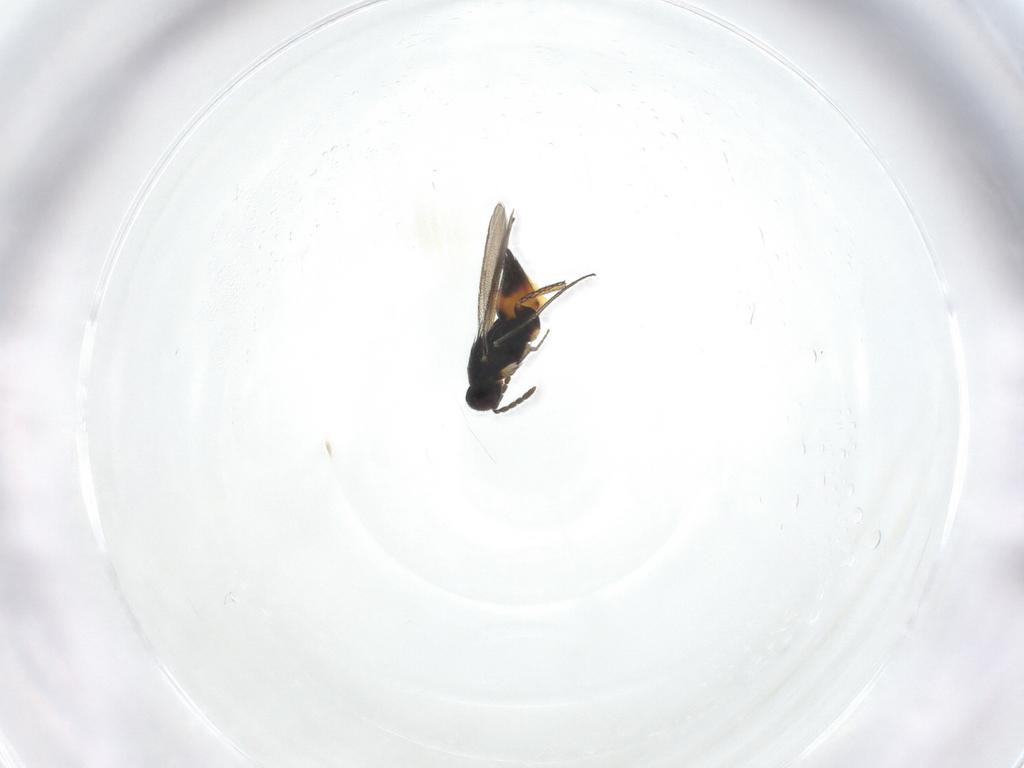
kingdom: Animalia
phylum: Arthropoda
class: Insecta
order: Hymenoptera
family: Eulophidae
